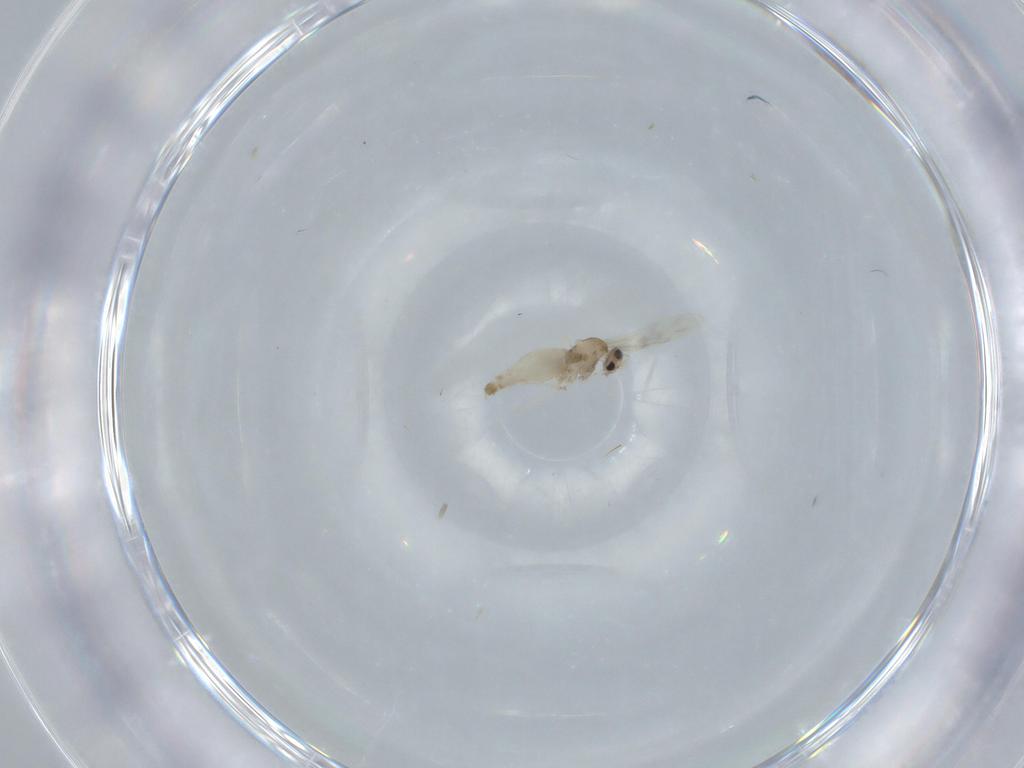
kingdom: Animalia
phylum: Arthropoda
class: Insecta
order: Diptera
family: Cecidomyiidae
